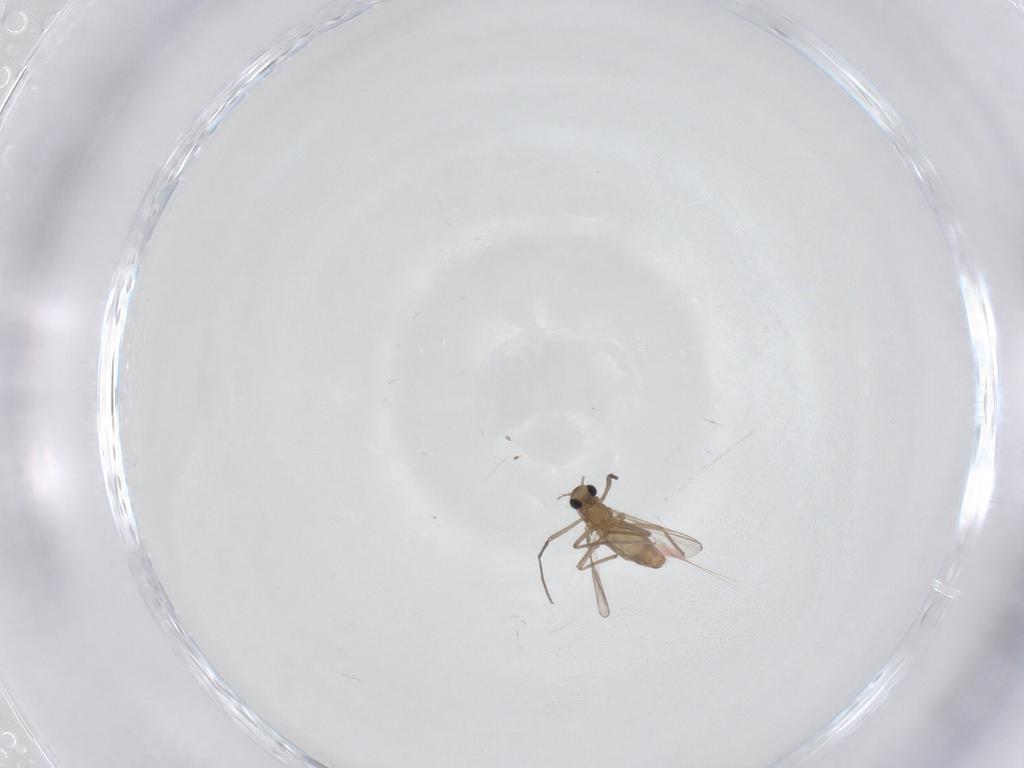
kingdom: Animalia
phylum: Arthropoda
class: Insecta
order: Diptera
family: Chironomidae
